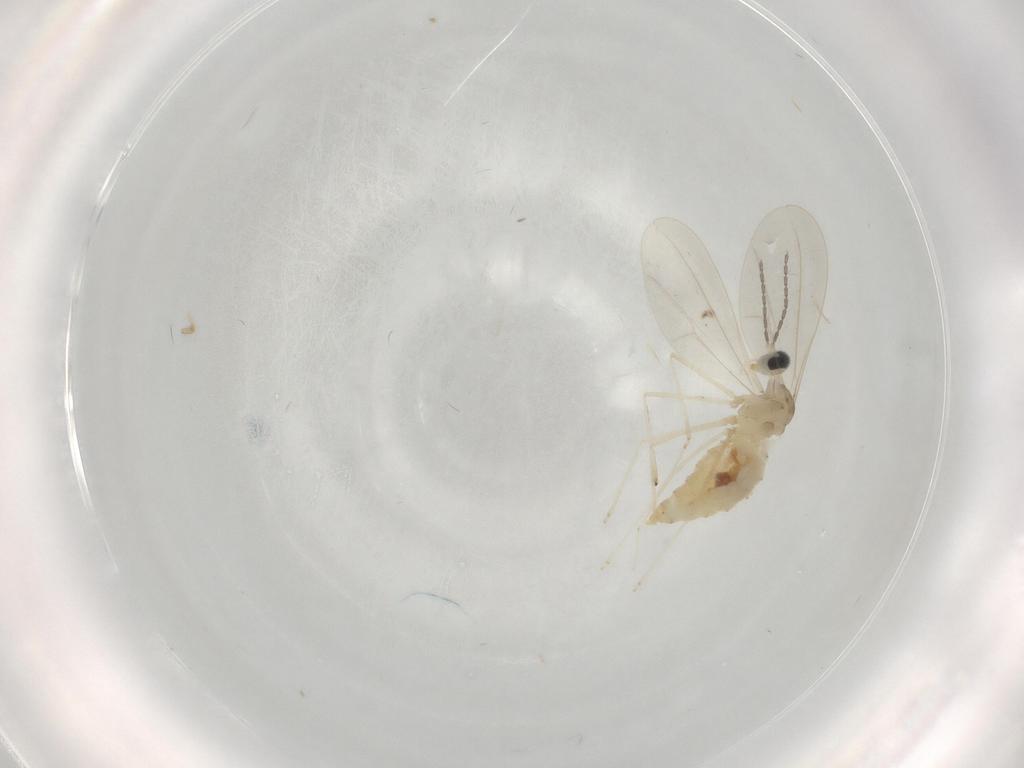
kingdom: Animalia
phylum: Arthropoda
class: Insecta
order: Diptera
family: Cecidomyiidae
